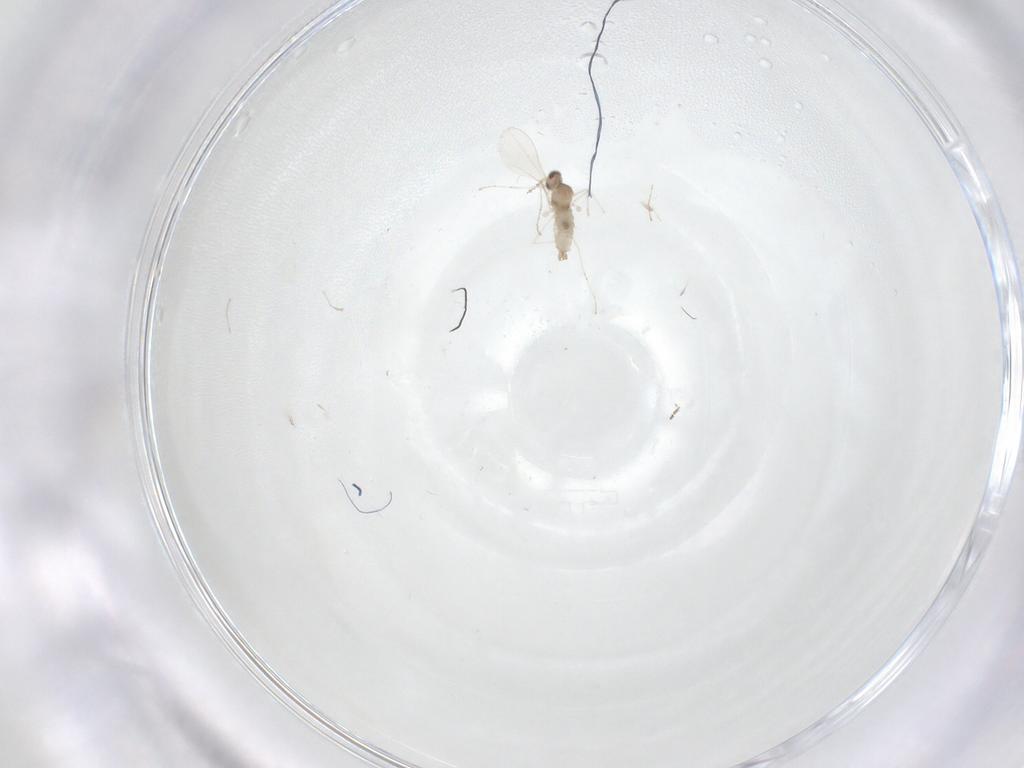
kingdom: Animalia
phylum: Arthropoda
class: Insecta
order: Diptera
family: Cecidomyiidae
